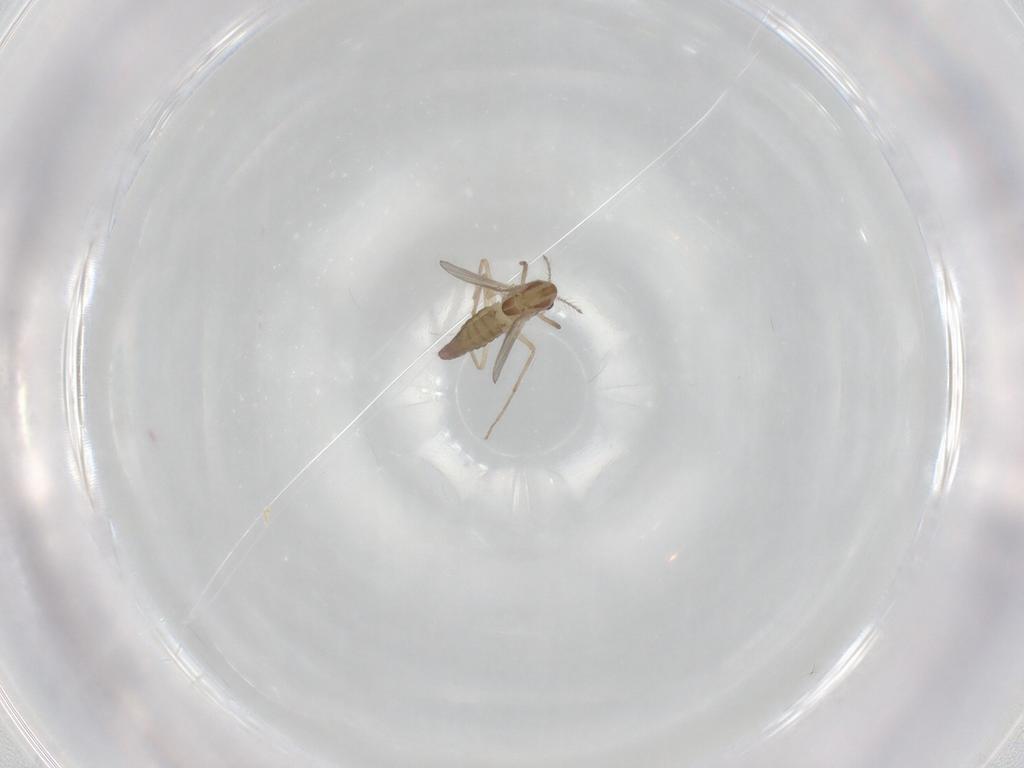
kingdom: Animalia
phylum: Arthropoda
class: Insecta
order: Diptera
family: Chironomidae
